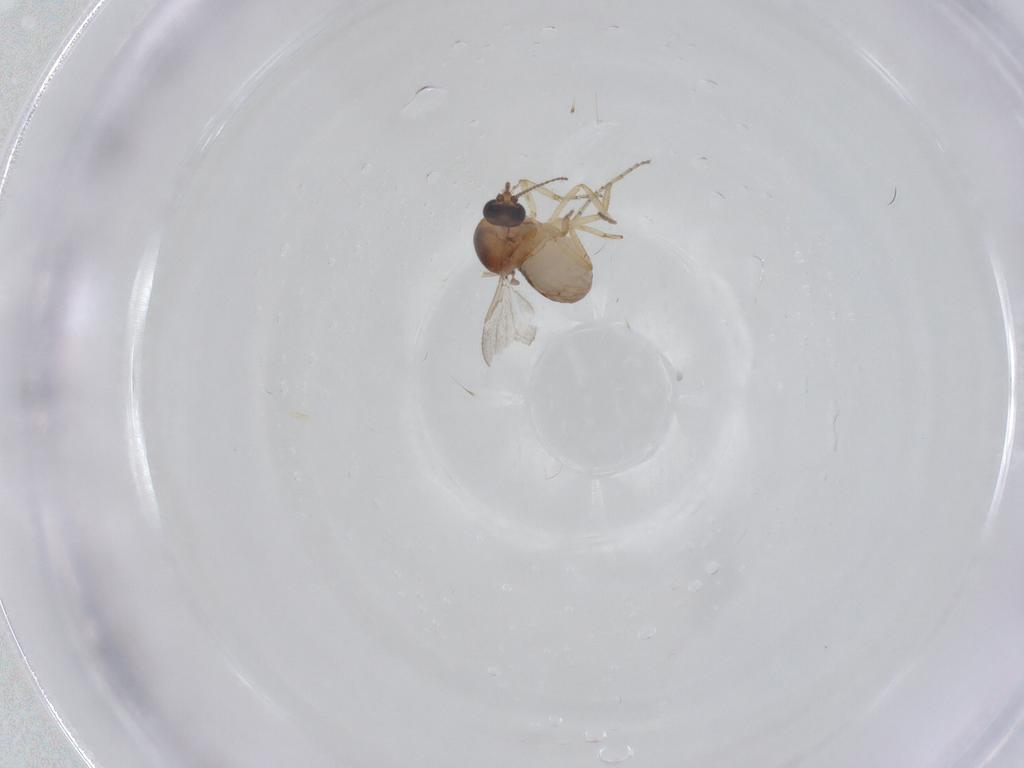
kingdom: Animalia
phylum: Arthropoda
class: Insecta
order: Diptera
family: Ceratopogonidae
